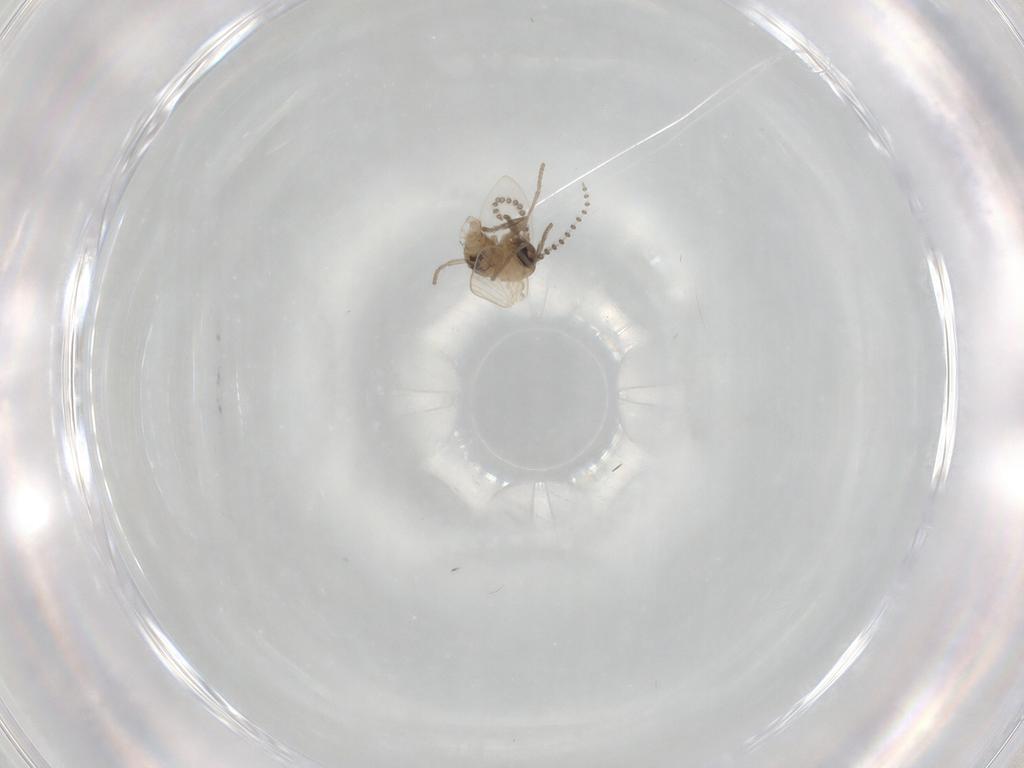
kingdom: Animalia
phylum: Arthropoda
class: Insecta
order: Diptera
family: Psychodidae
